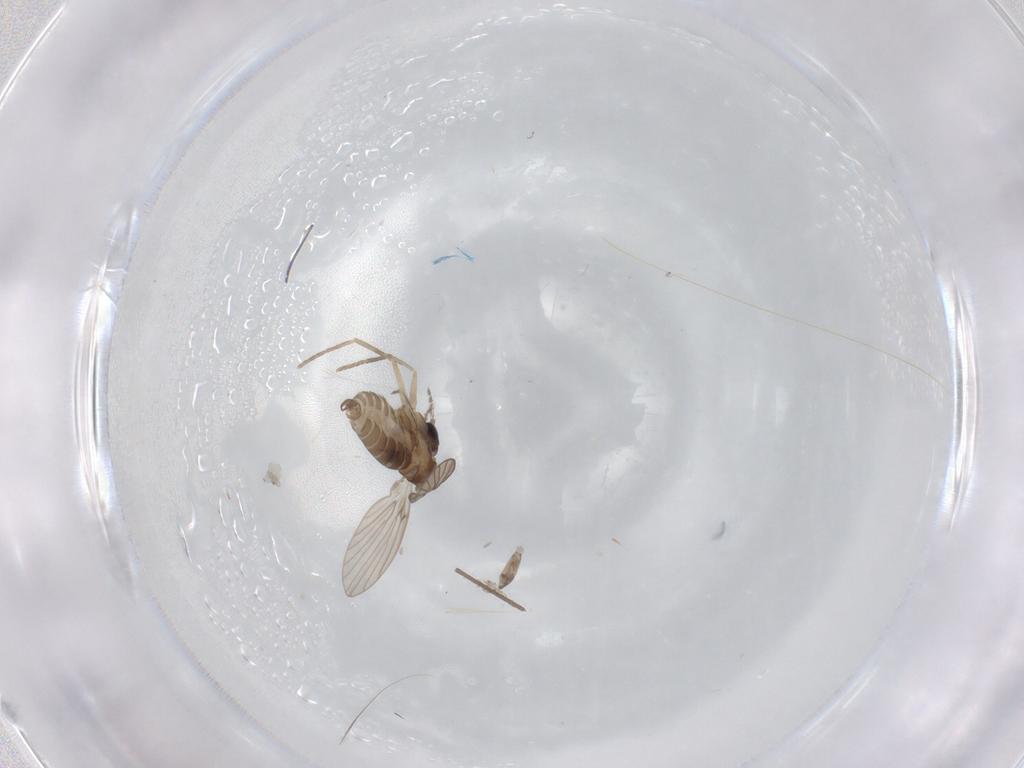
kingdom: Animalia
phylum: Arthropoda
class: Insecta
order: Diptera
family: Chironomidae
